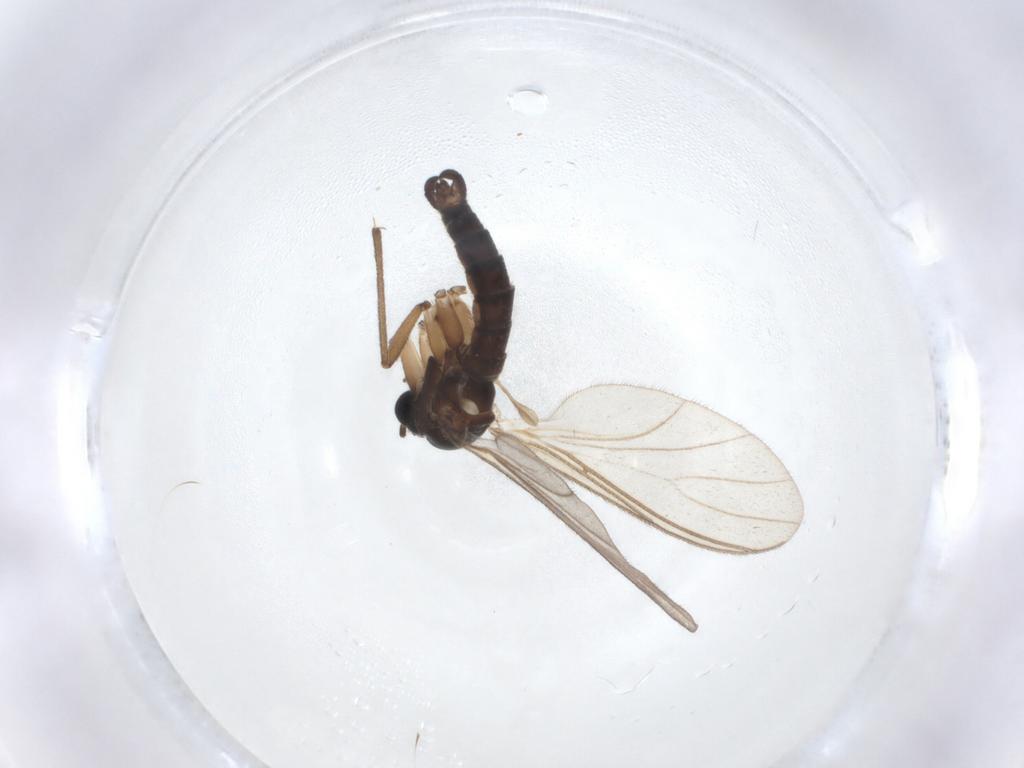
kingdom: Animalia
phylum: Arthropoda
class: Insecta
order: Diptera
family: Sciaridae
